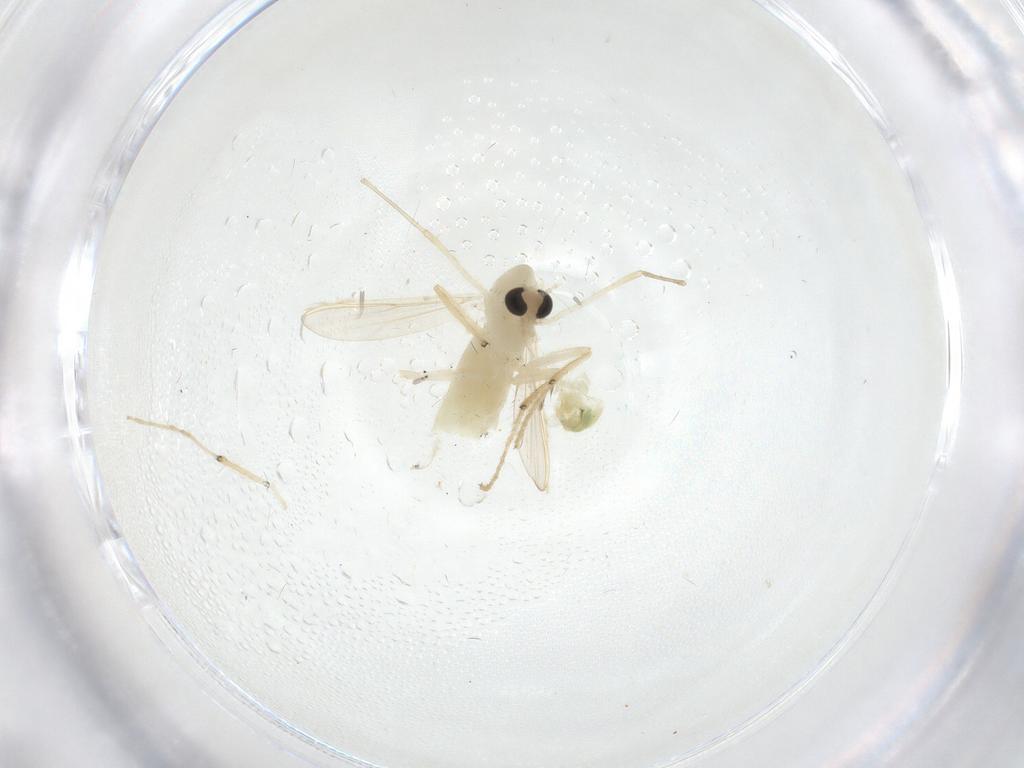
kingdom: Animalia
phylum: Arthropoda
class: Insecta
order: Diptera
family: Chironomidae
